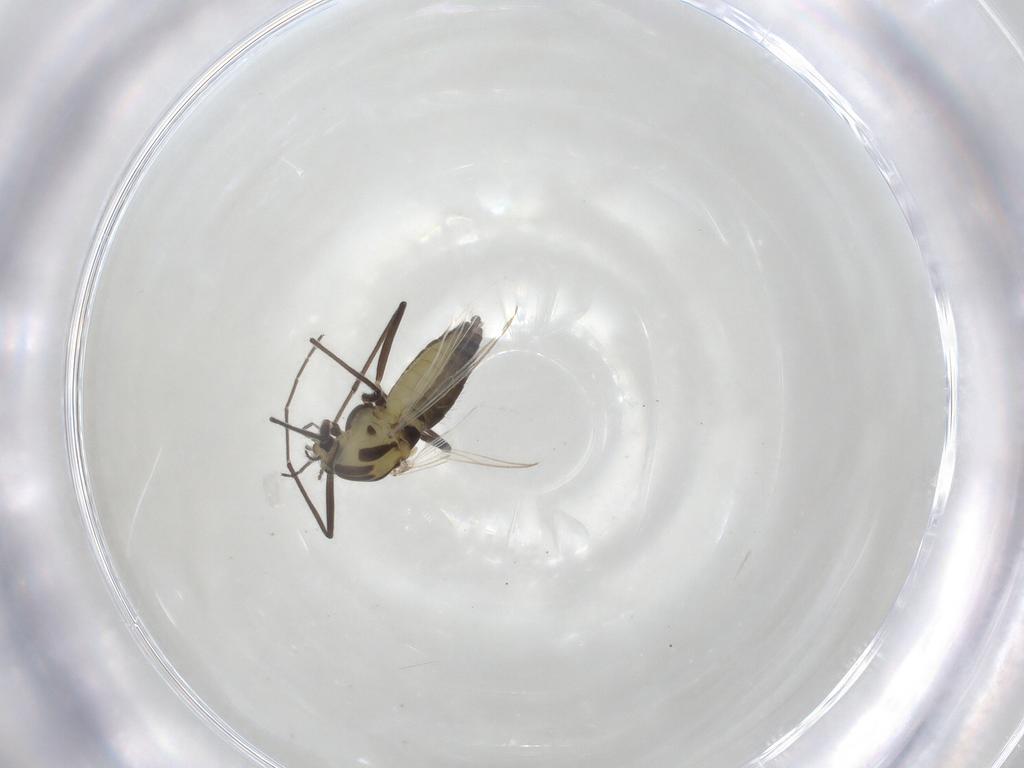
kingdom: Animalia
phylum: Arthropoda
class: Insecta
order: Diptera
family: Chironomidae
